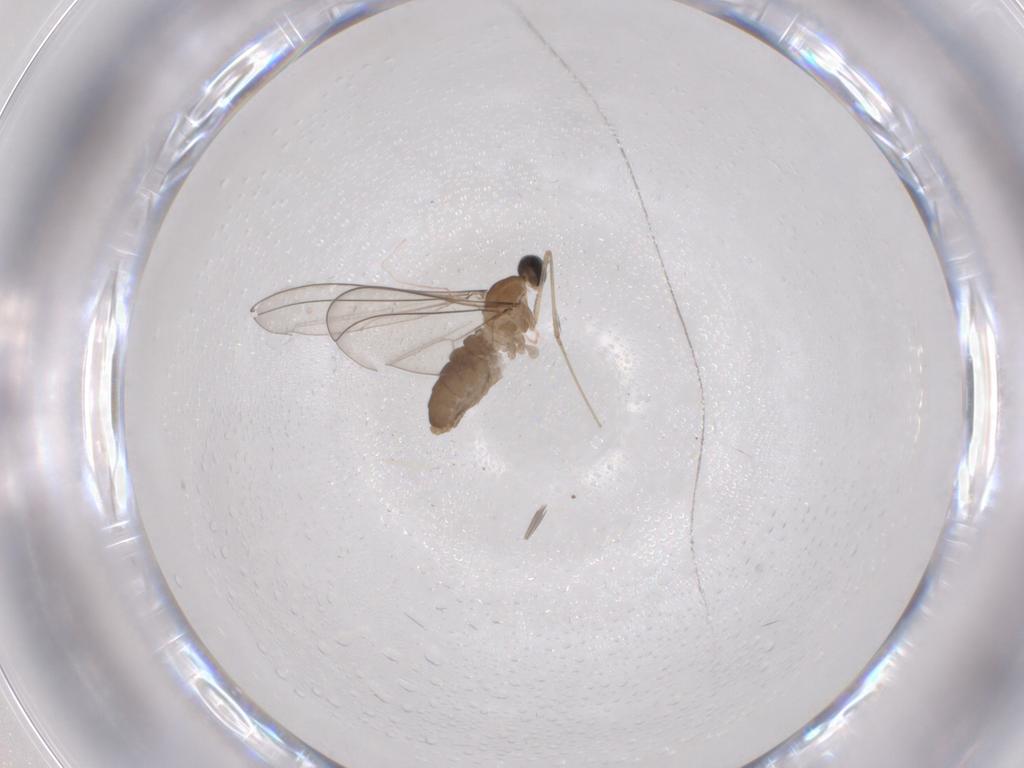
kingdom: Animalia
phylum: Arthropoda
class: Insecta
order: Diptera
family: Cecidomyiidae
